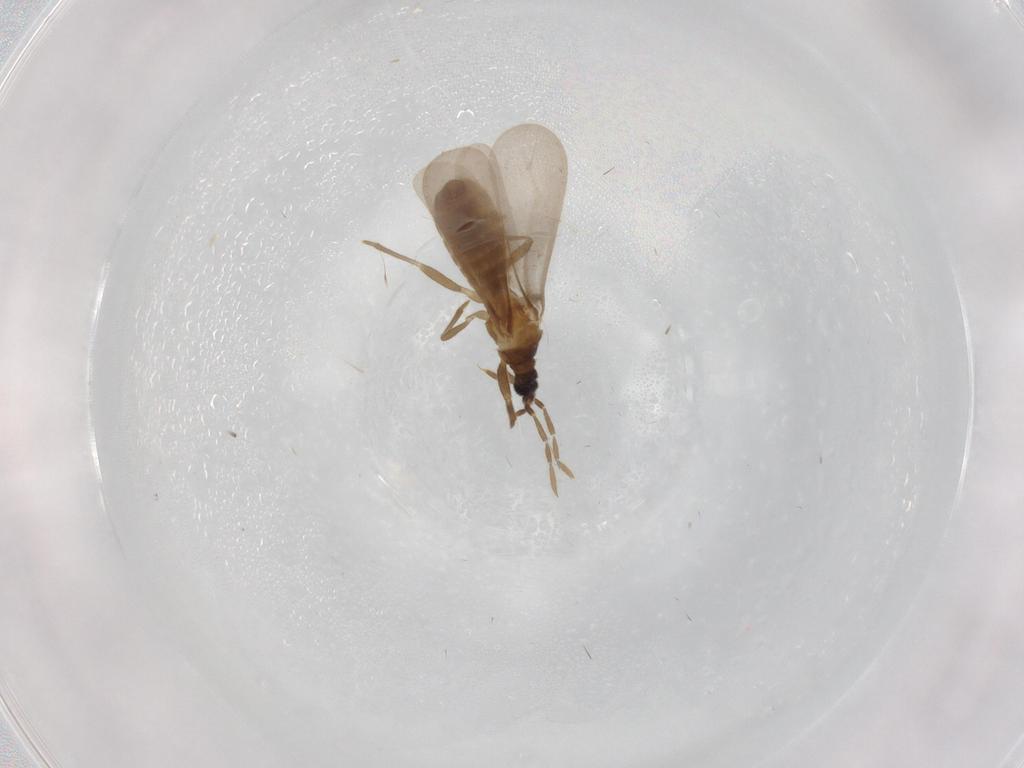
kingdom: Animalia
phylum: Arthropoda
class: Insecta
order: Hemiptera
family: Enicocephalidae
